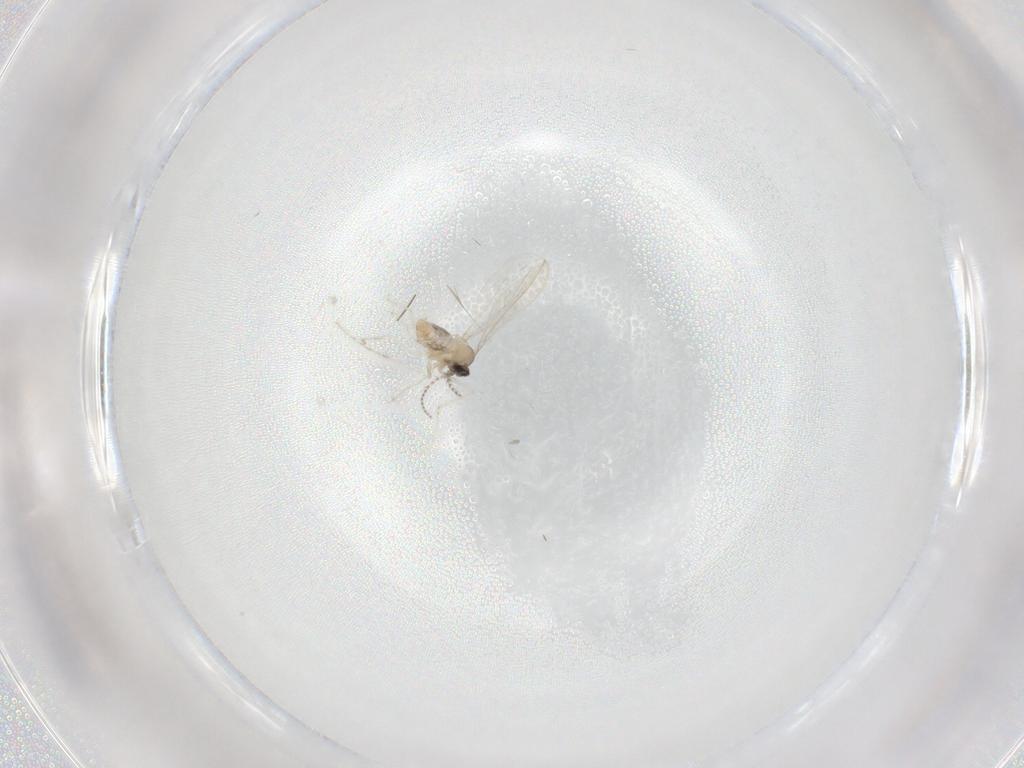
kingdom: Animalia
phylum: Arthropoda
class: Insecta
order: Diptera
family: Cecidomyiidae
